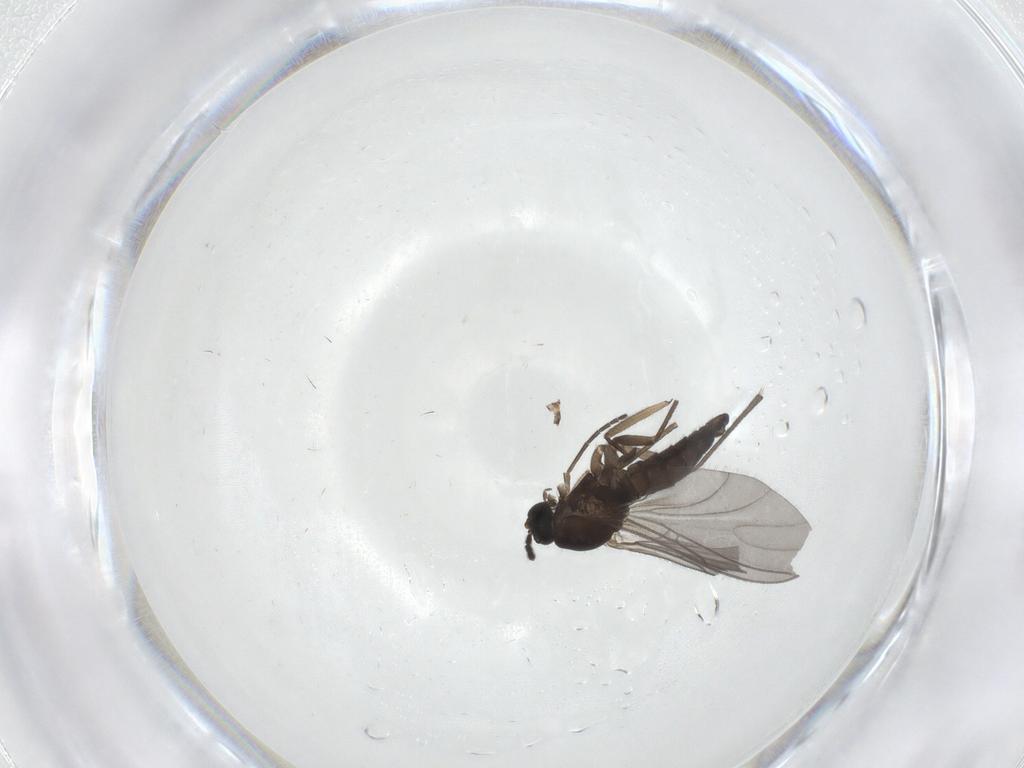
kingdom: Animalia
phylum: Arthropoda
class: Insecta
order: Diptera
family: Sciaridae
